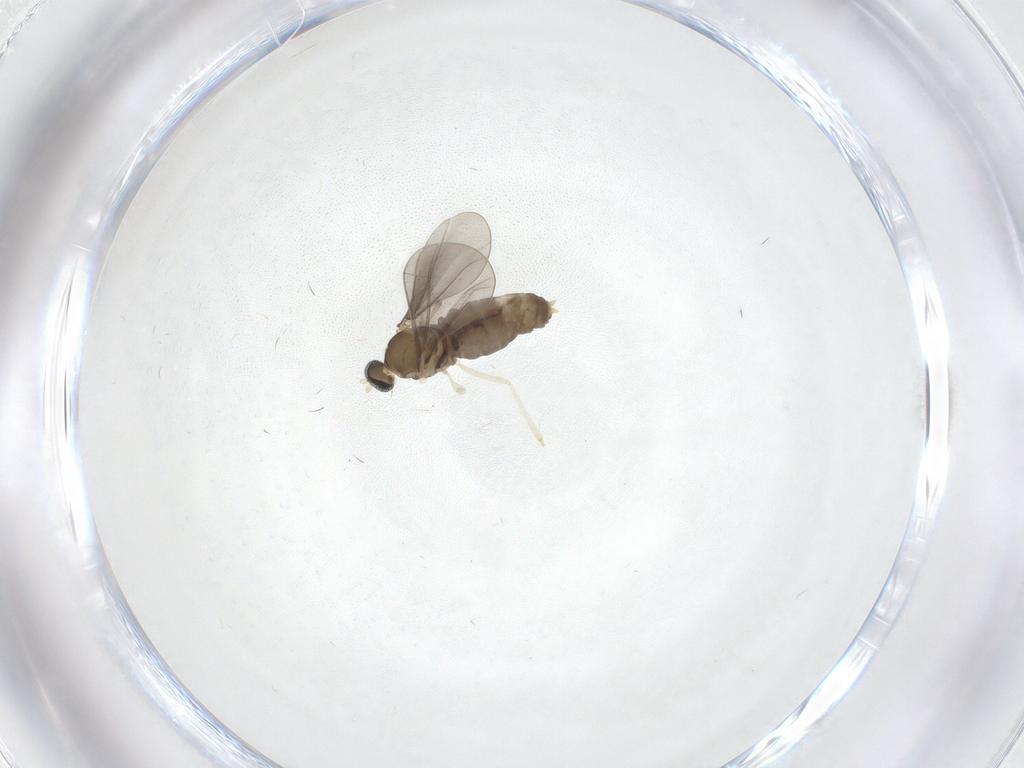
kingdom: Animalia
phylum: Arthropoda
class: Insecta
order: Diptera
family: Cecidomyiidae
